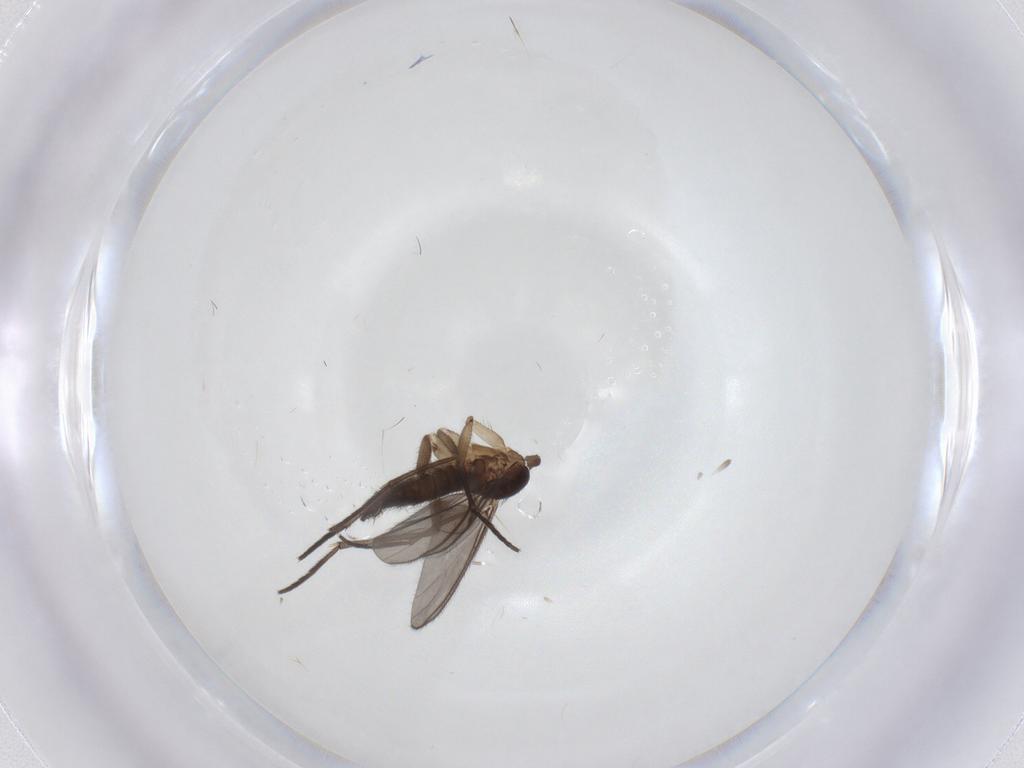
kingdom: Animalia
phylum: Arthropoda
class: Insecta
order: Diptera
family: Sciaridae
